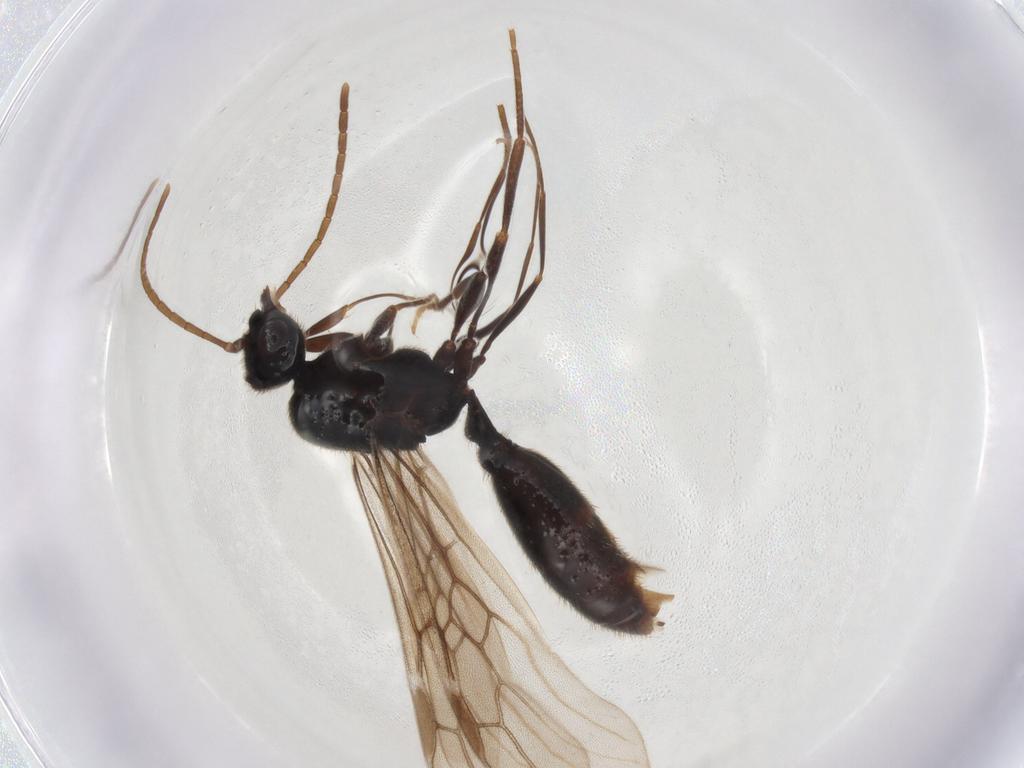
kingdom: Animalia
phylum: Arthropoda
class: Insecta
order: Hymenoptera
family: Formicidae
